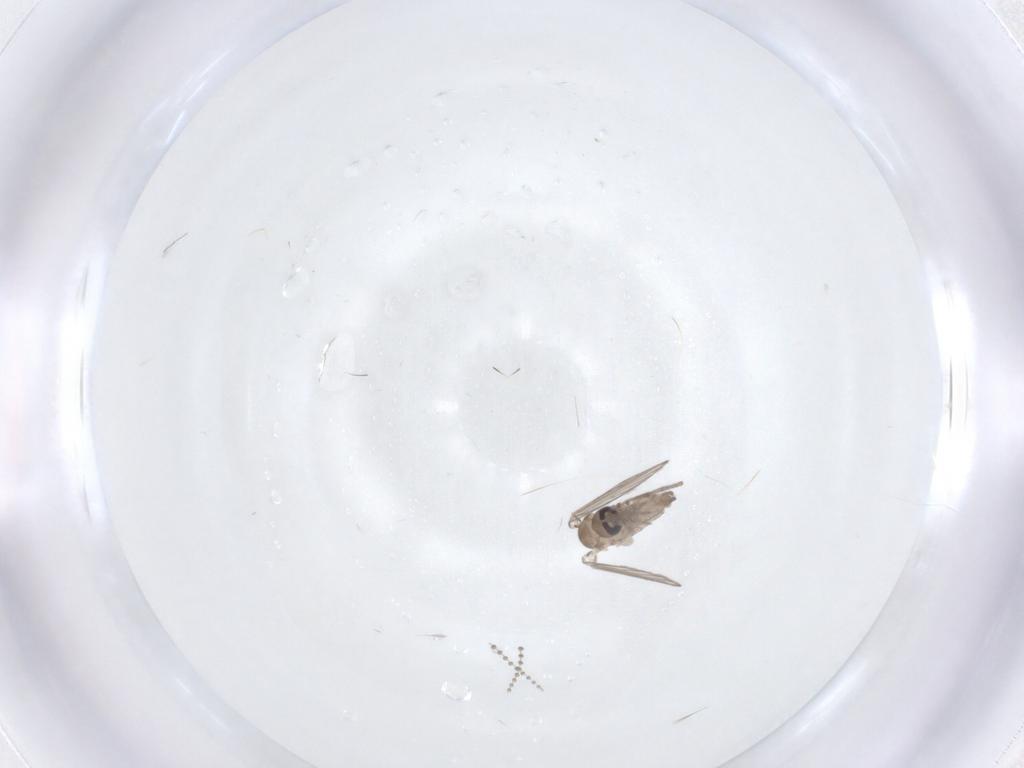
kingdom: Animalia
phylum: Arthropoda
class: Insecta
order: Diptera
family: Psychodidae
